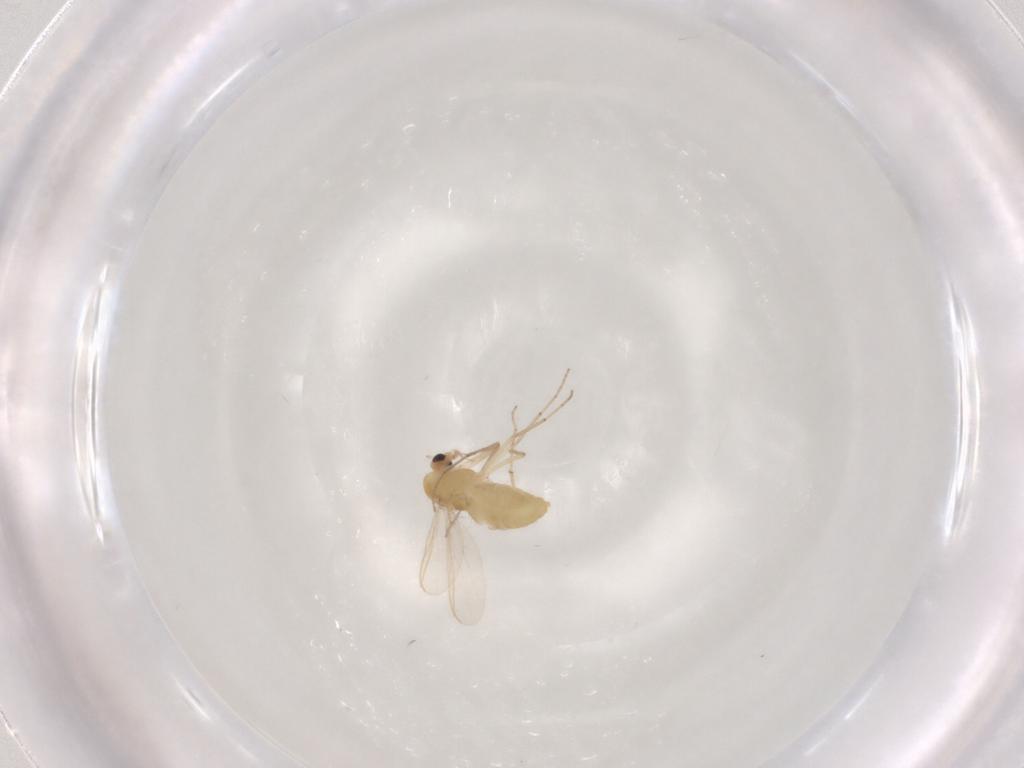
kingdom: Animalia
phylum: Arthropoda
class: Insecta
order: Diptera
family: Chironomidae
